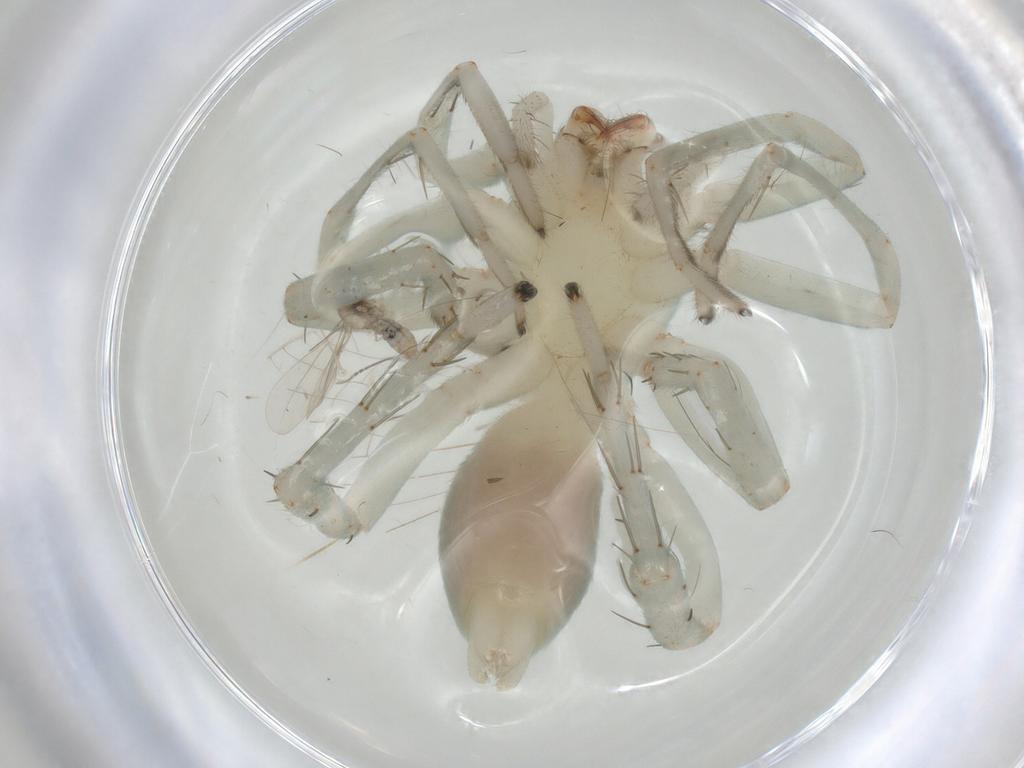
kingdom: Animalia
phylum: Arthropoda
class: Arachnida
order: Araneae
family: Clubionidae
